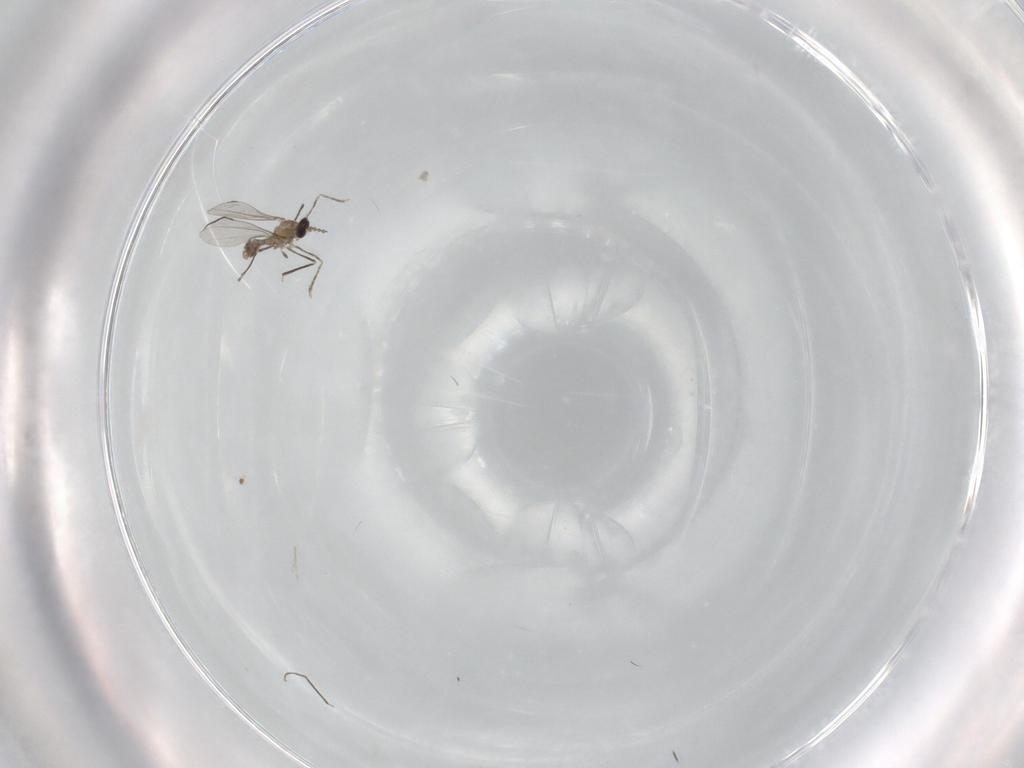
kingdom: Animalia
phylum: Arthropoda
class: Insecta
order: Diptera
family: Cecidomyiidae
